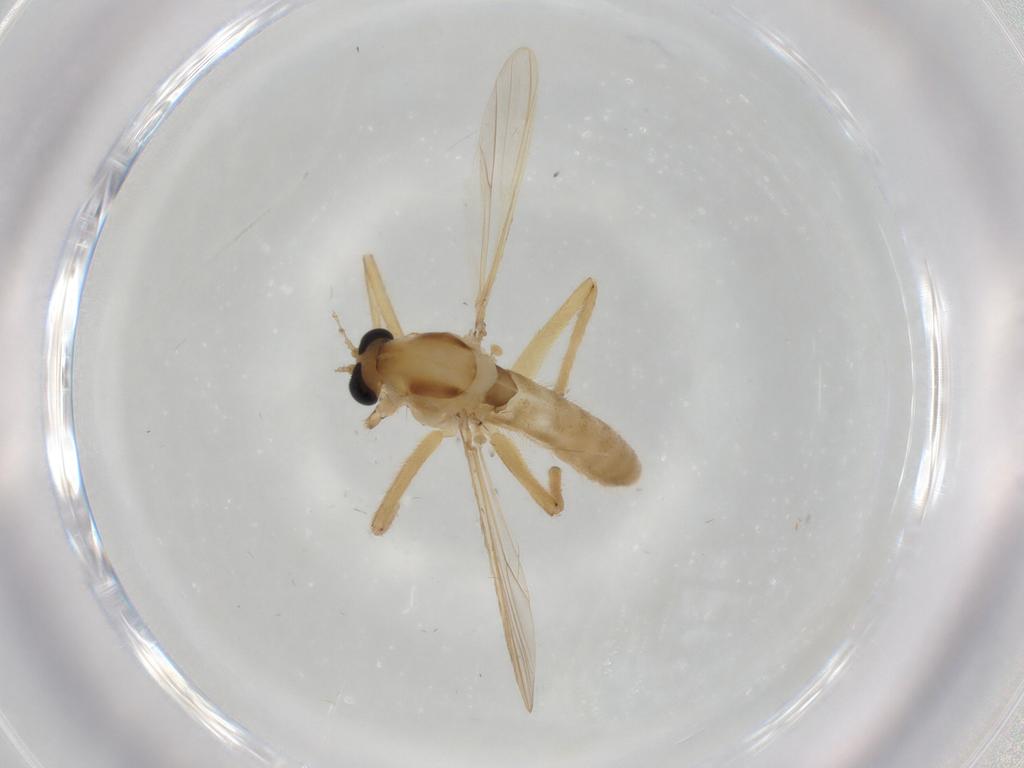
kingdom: Animalia
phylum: Arthropoda
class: Insecta
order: Diptera
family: Chironomidae
